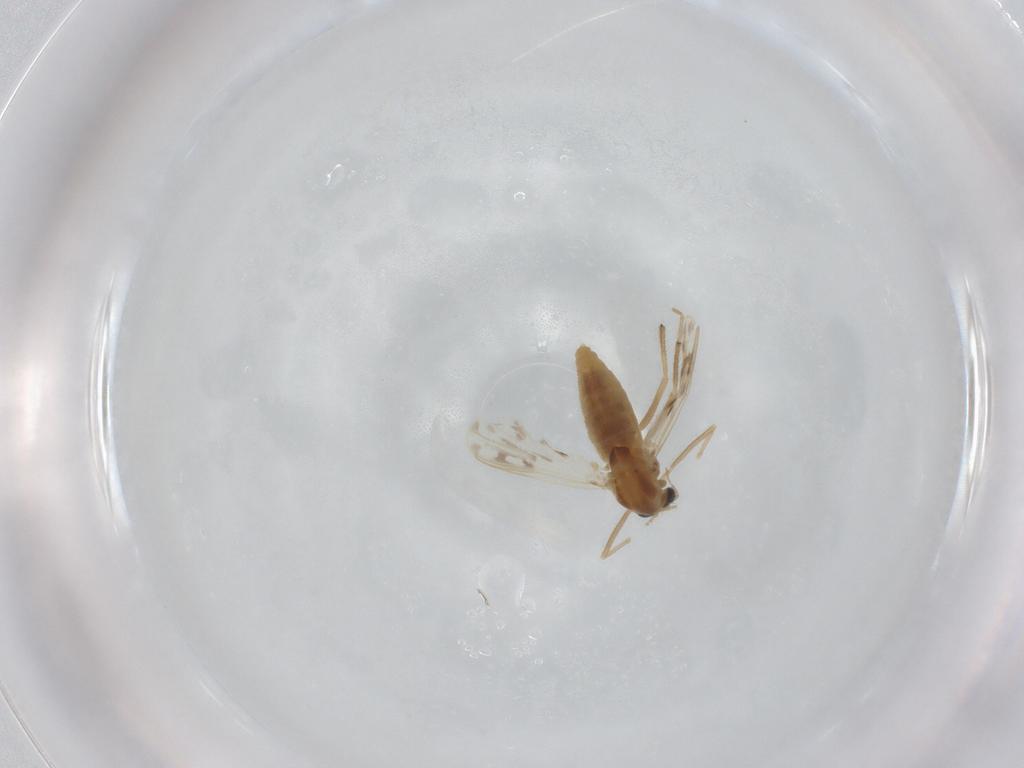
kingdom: Animalia
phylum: Arthropoda
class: Insecta
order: Diptera
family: Chironomidae
